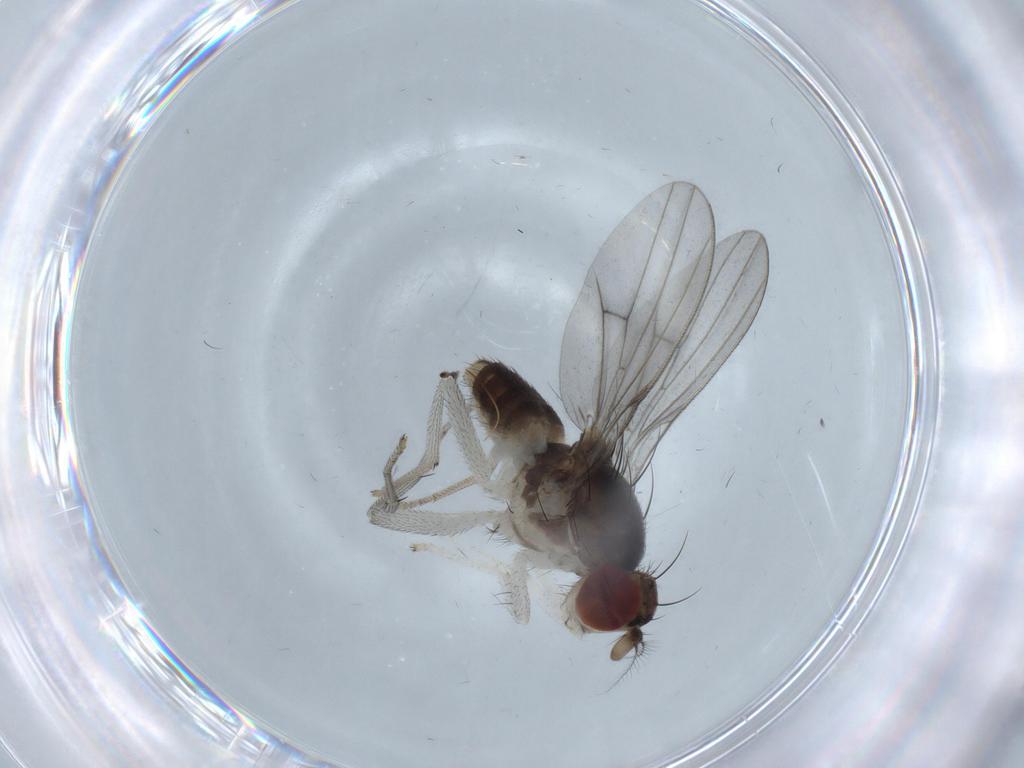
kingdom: Animalia
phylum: Arthropoda
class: Insecta
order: Diptera
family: Lauxaniidae
